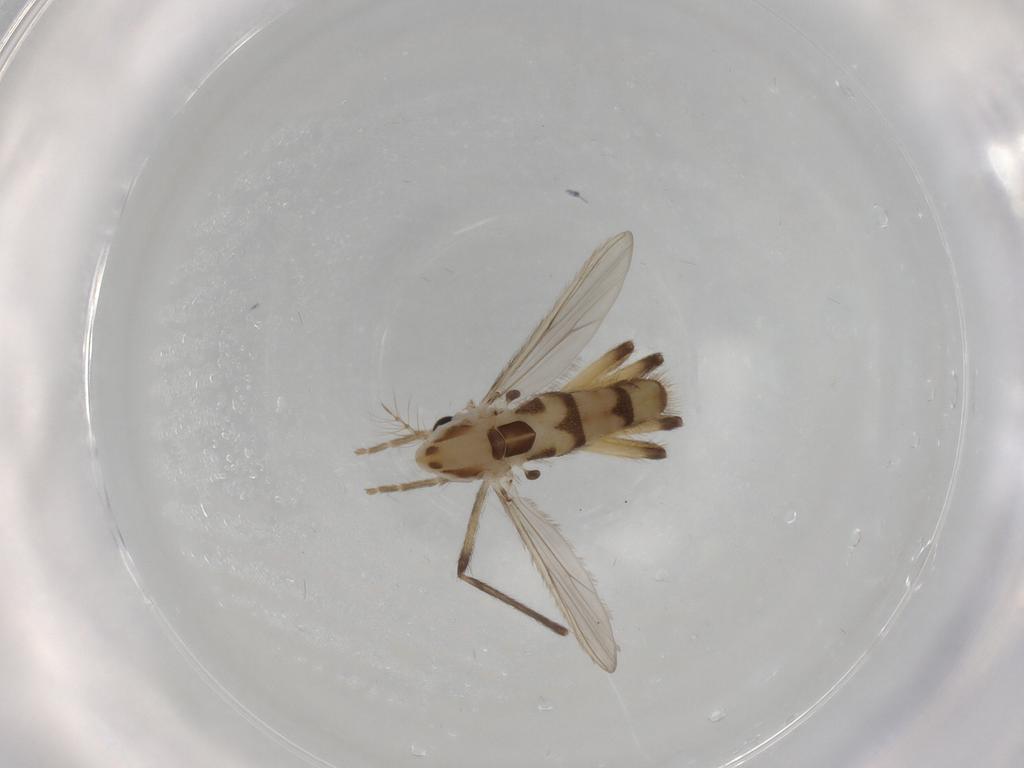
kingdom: Animalia
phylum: Arthropoda
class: Insecta
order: Diptera
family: Chironomidae
